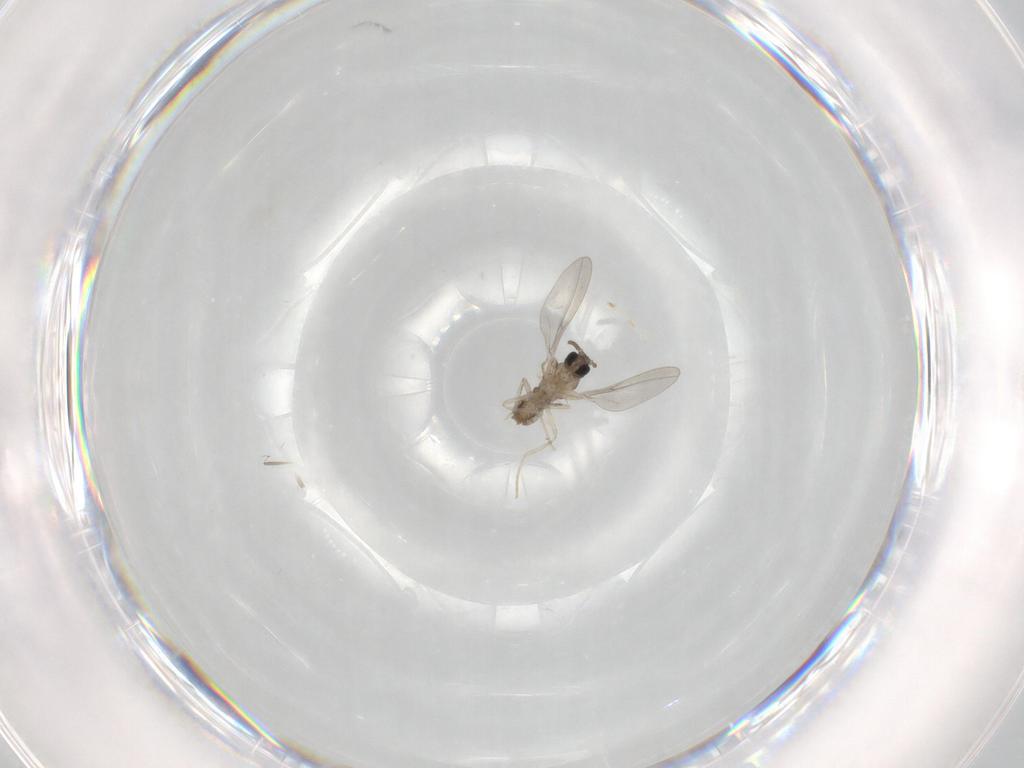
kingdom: Animalia
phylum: Arthropoda
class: Insecta
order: Diptera
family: Cecidomyiidae
